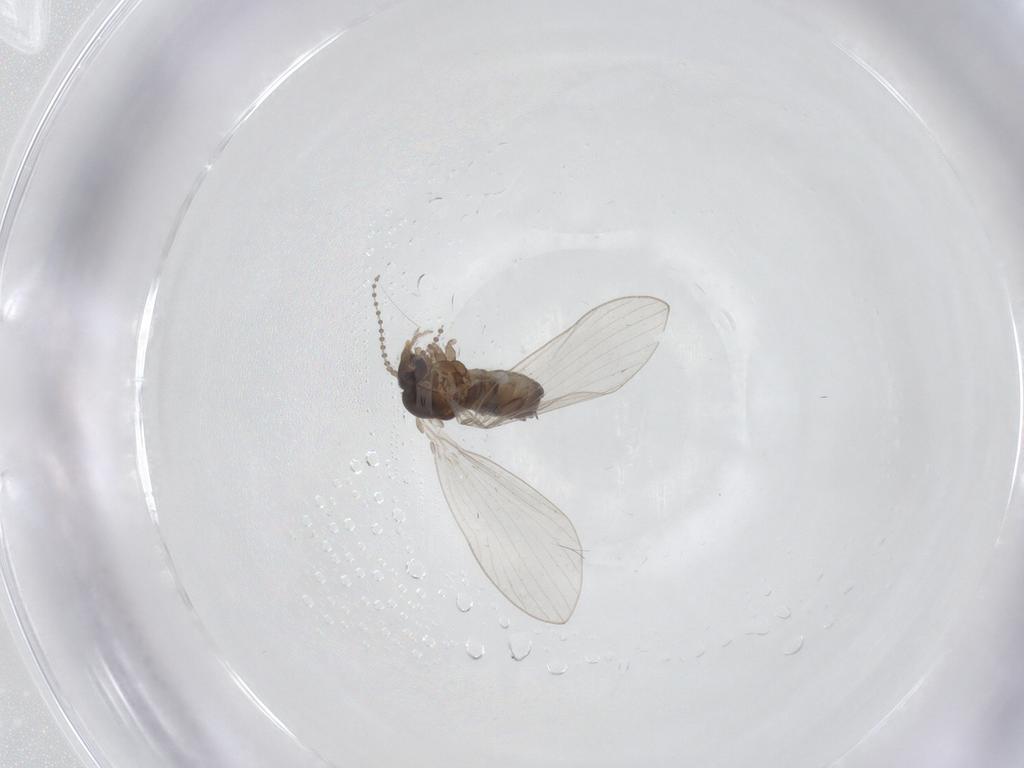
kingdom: Animalia
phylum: Arthropoda
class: Insecta
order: Diptera
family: Psychodidae
